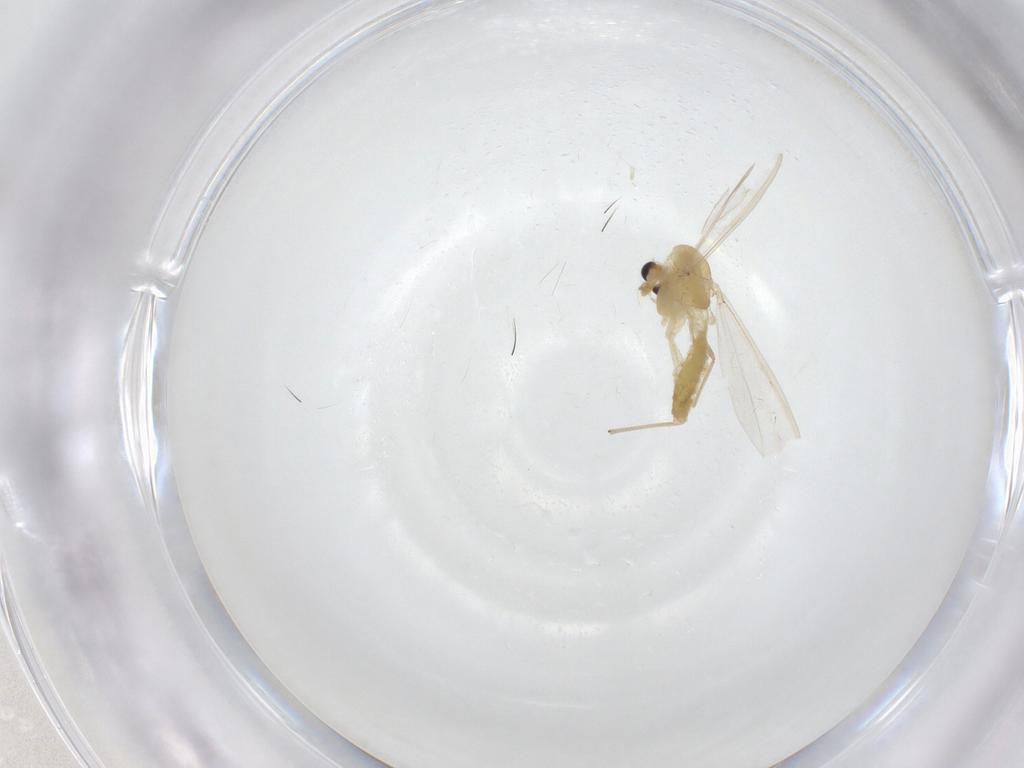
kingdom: Animalia
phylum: Arthropoda
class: Insecta
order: Diptera
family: Chironomidae
